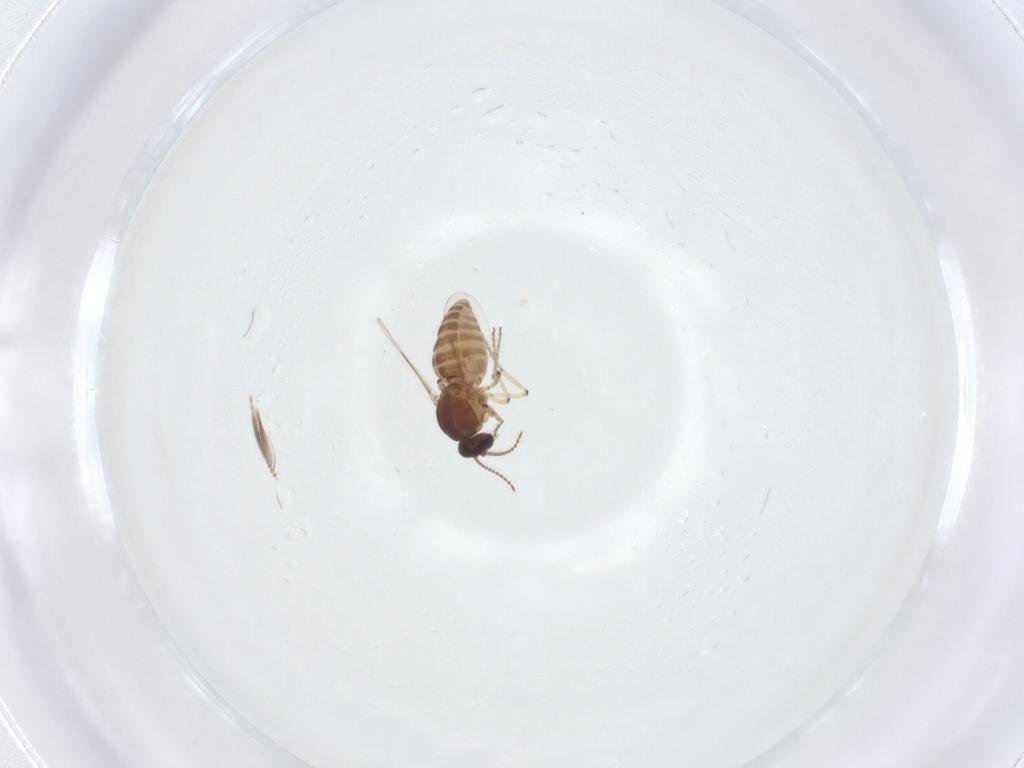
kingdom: Animalia
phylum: Arthropoda
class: Insecta
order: Diptera
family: Ceratopogonidae
